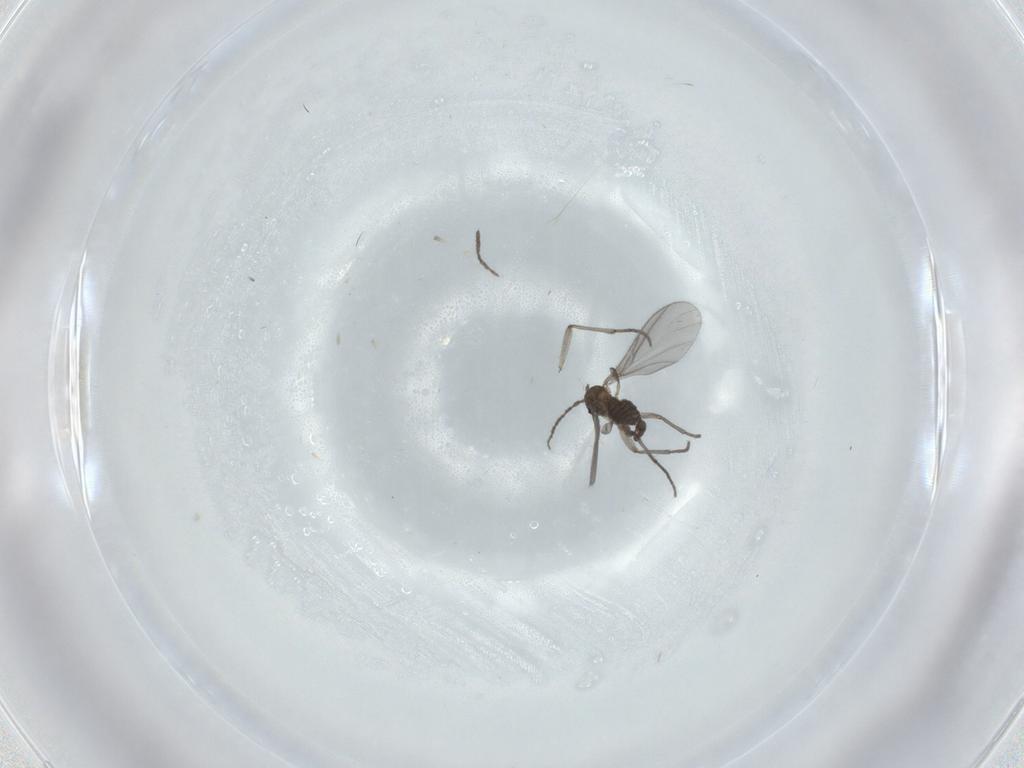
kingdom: Animalia
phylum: Arthropoda
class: Insecta
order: Diptera
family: Sciaridae
